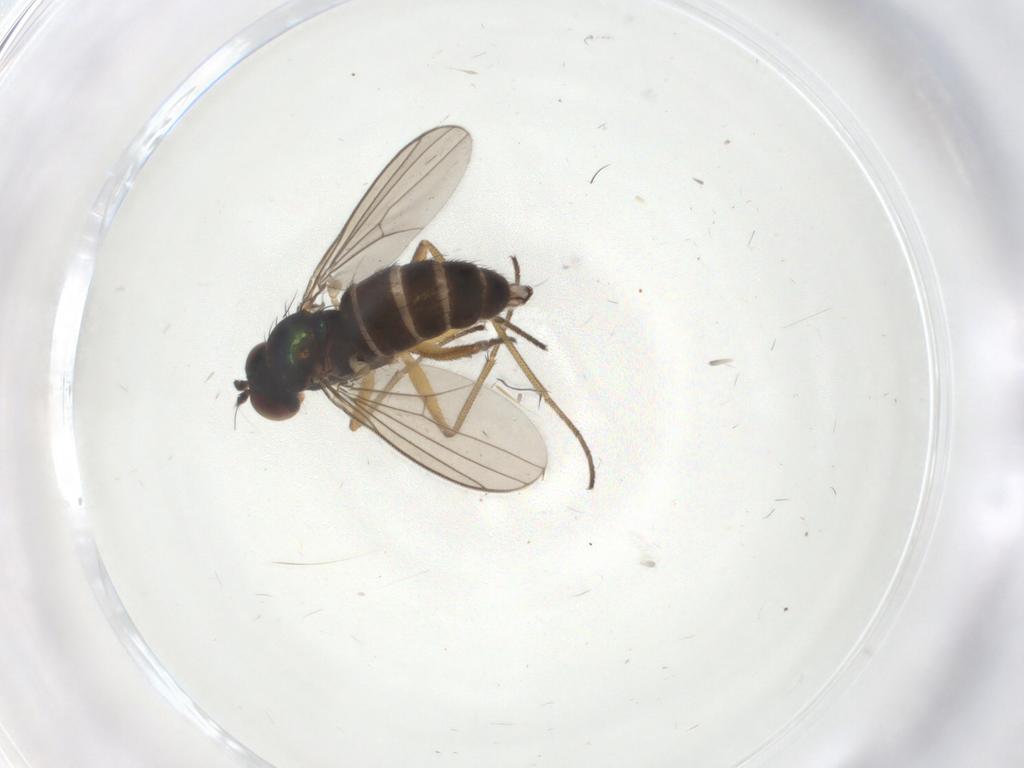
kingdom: Animalia
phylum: Arthropoda
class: Insecta
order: Diptera
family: Dolichopodidae
